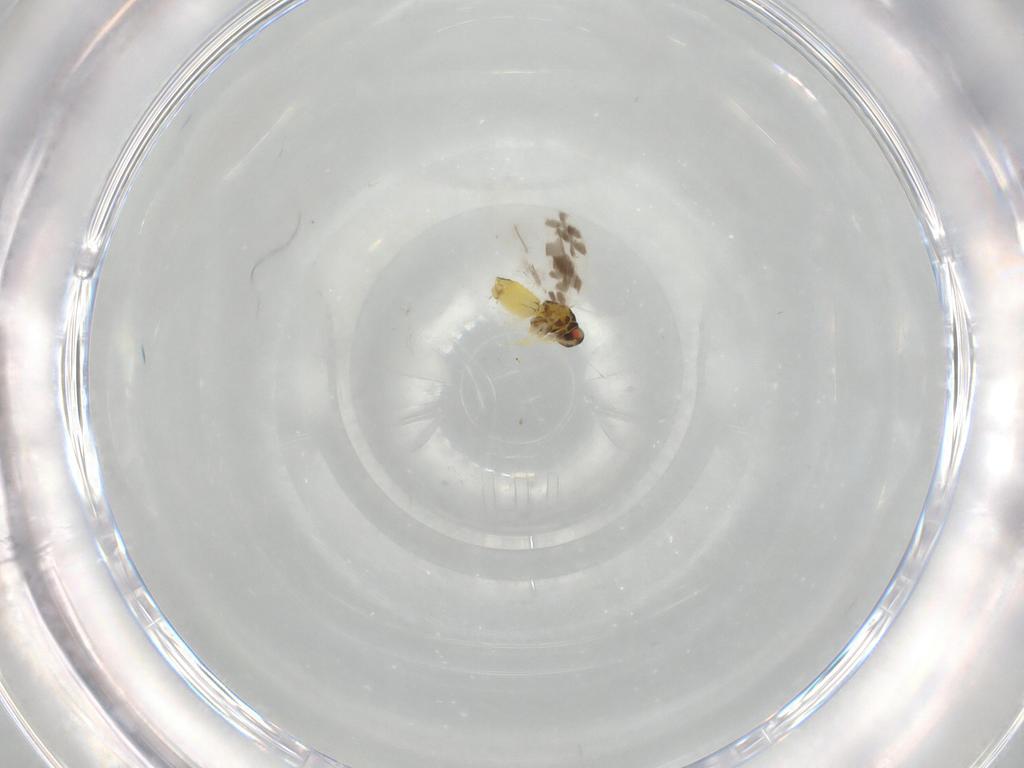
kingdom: Animalia
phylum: Arthropoda
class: Insecta
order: Hemiptera
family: Aleyrodidae
